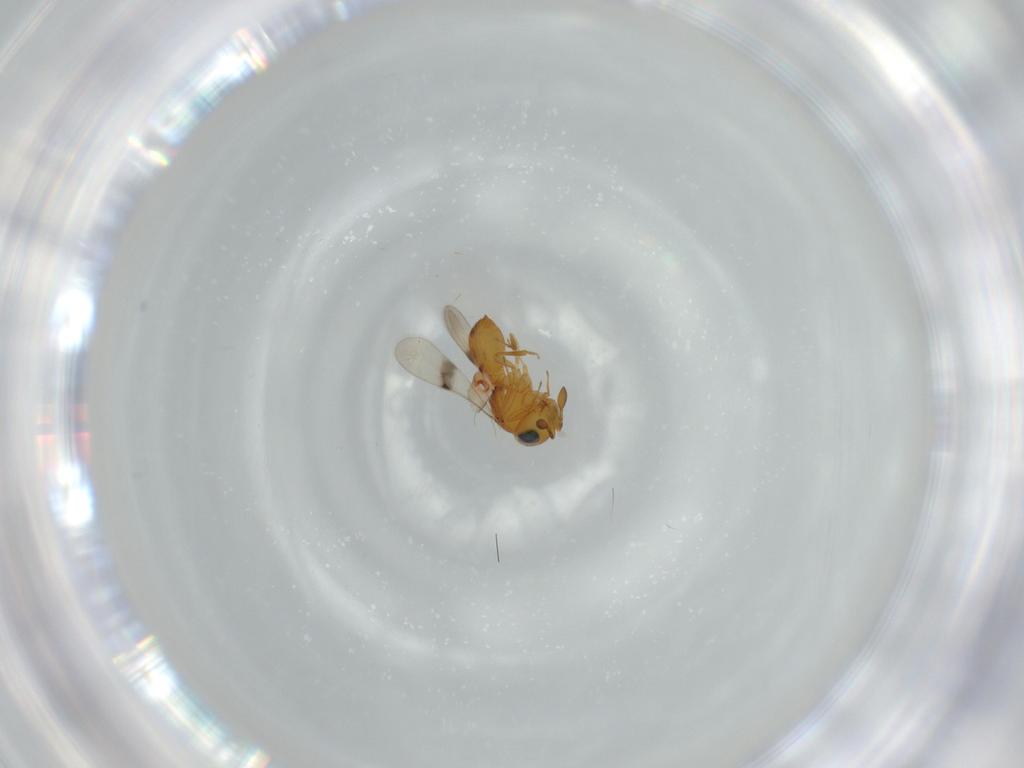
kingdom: Animalia
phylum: Arthropoda
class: Insecta
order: Hymenoptera
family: Scelionidae
